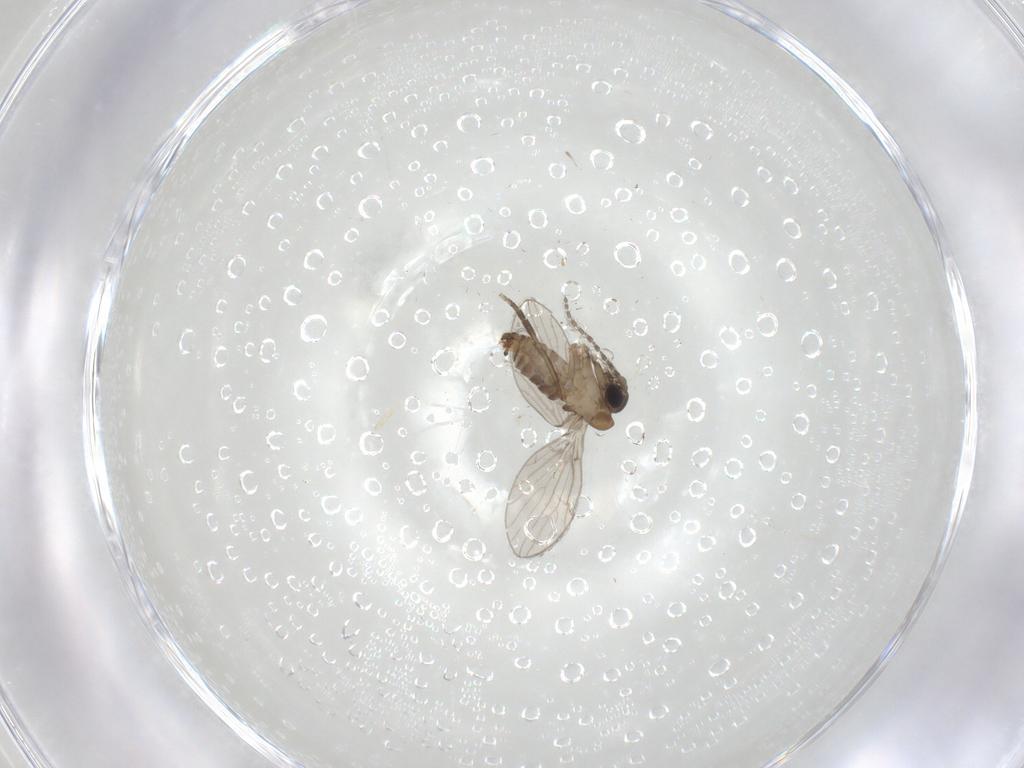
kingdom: Animalia
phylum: Arthropoda
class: Insecta
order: Diptera
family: Psychodidae
